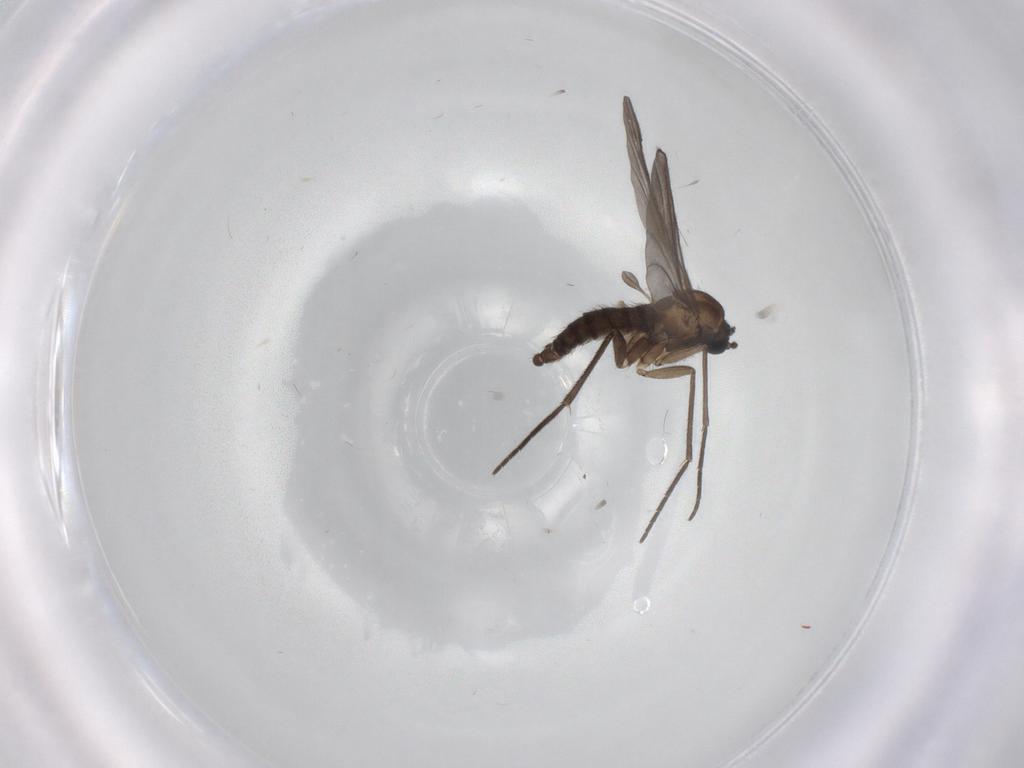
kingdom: Animalia
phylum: Arthropoda
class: Insecta
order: Diptera
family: Sciaridae
